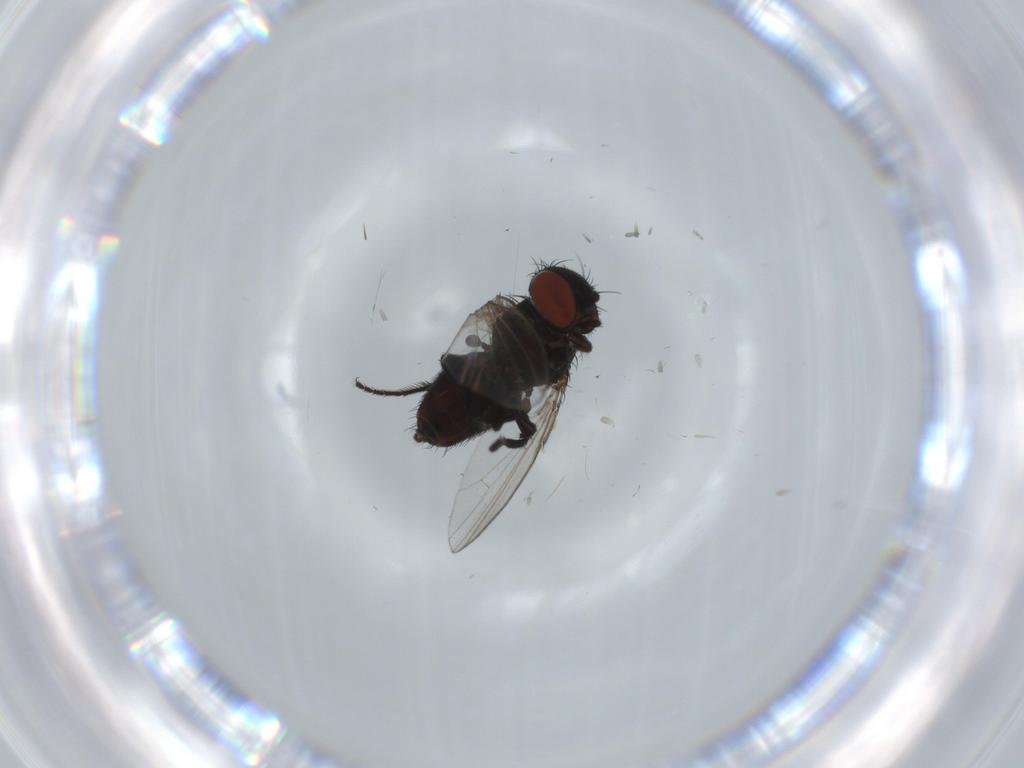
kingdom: Animalia
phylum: Arthropoda
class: Insecta
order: Diptera
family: Milichiidae
